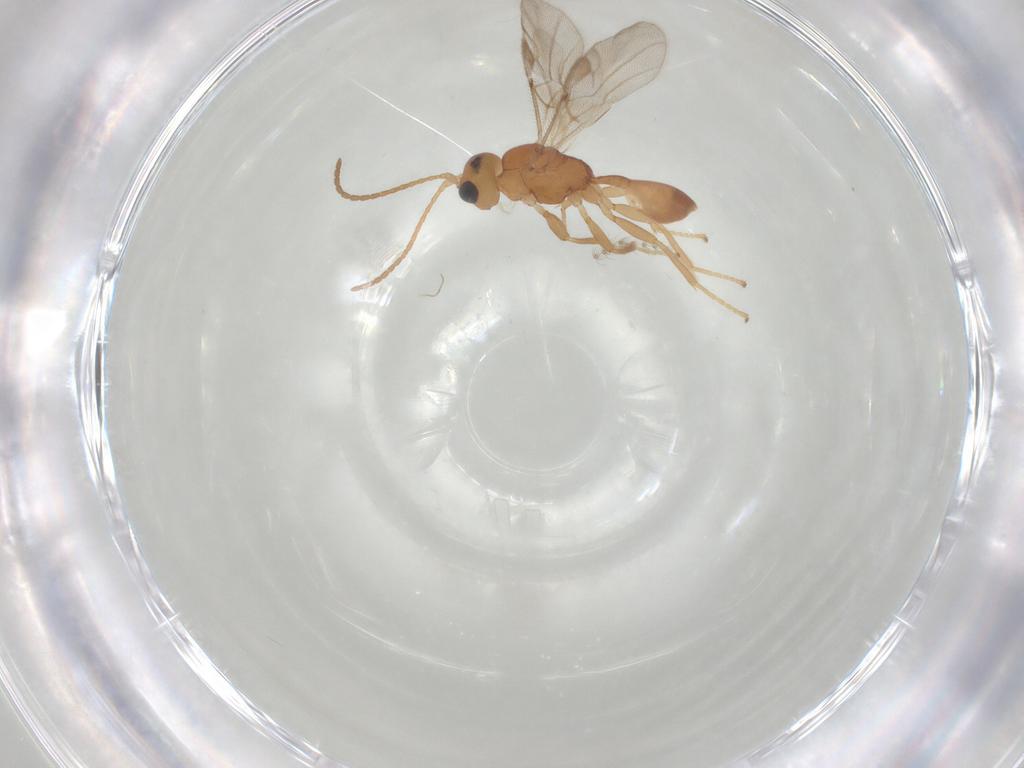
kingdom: Animalia
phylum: Arthropoda
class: Insecta
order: Hymenoptera
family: Braconidae
